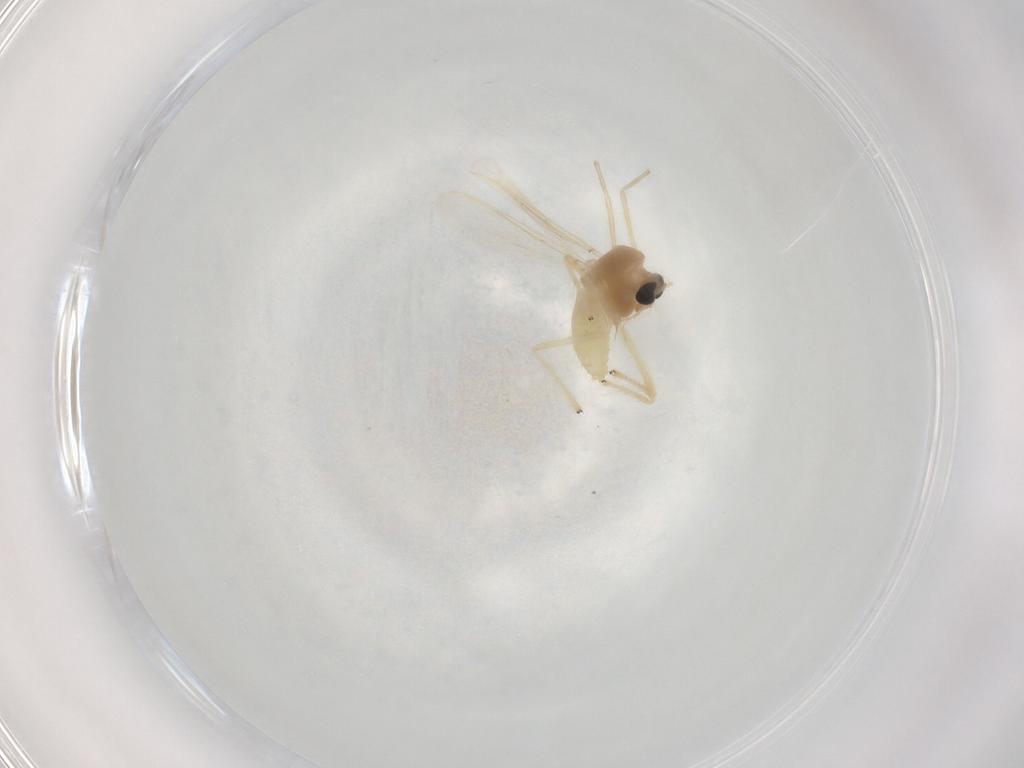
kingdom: Animalia
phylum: Arthropoda
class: Insecta
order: Diptera
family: Chironomidae
